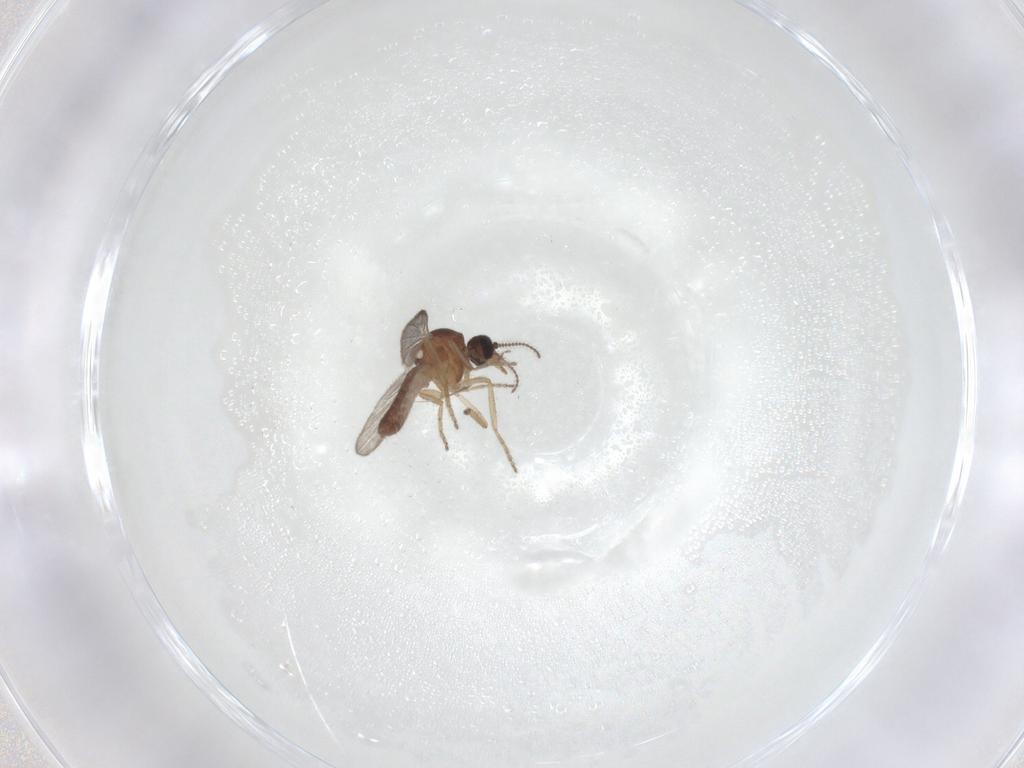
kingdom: Animalia
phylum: Arthropoda
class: Insecta
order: Diptera
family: Ceratopogonidae
